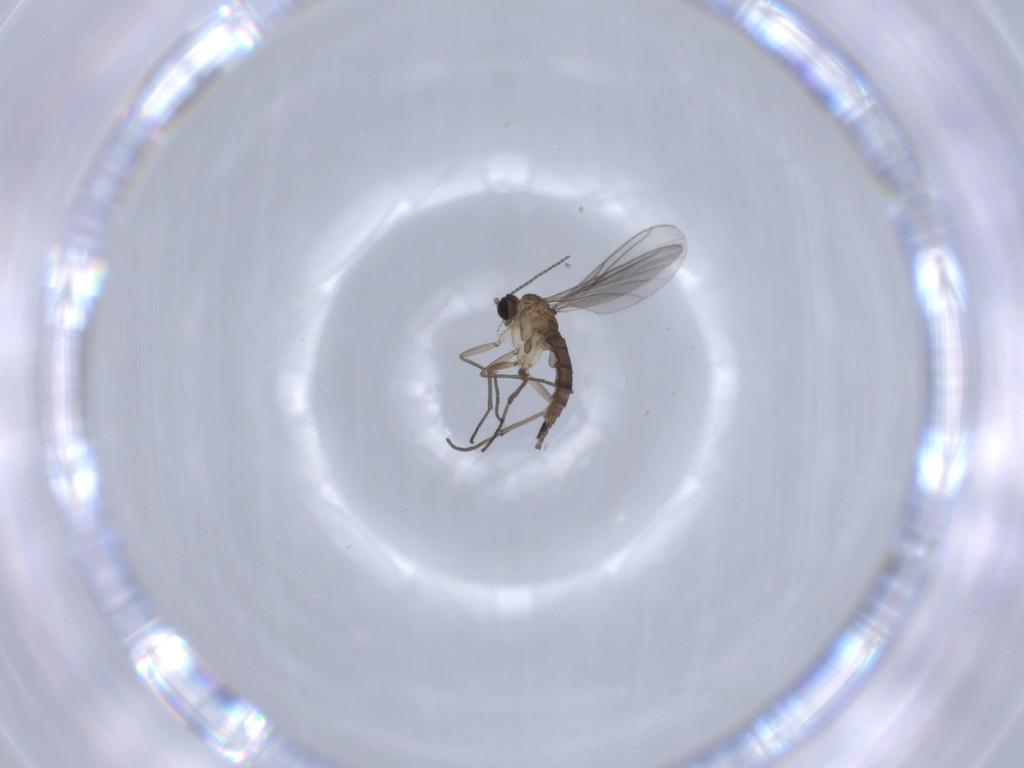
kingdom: Animalia
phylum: Arthropoda
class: Insecta
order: Diptera
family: Sciaridae
